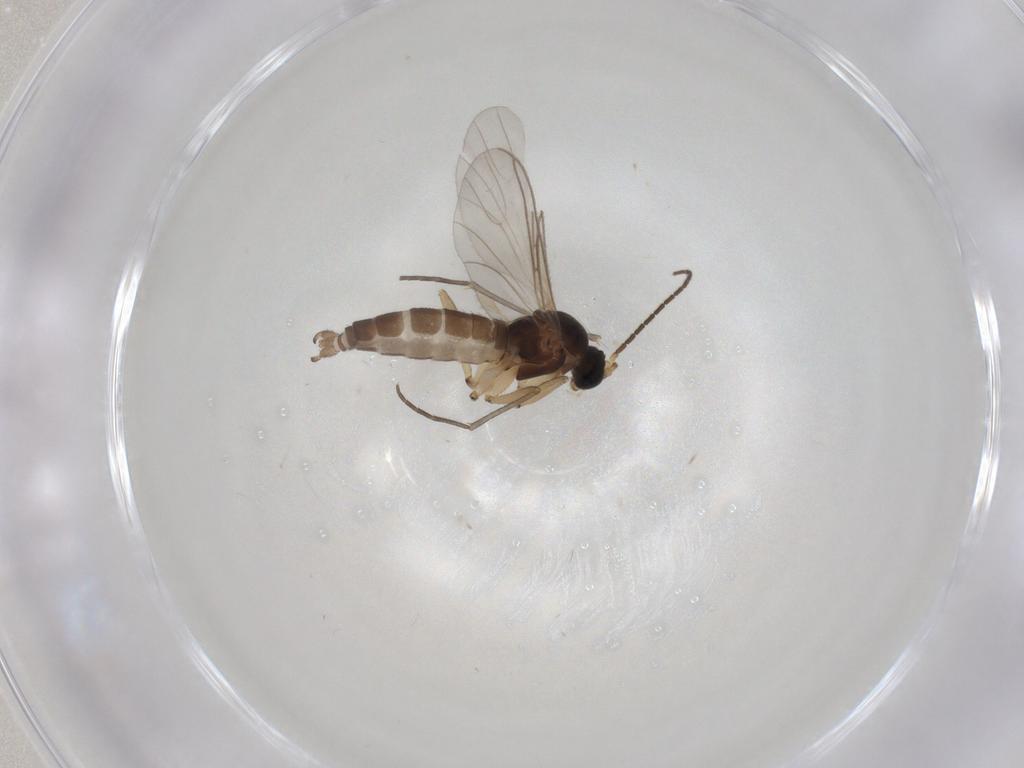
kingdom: Animalia
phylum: Arthropoda
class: Insecta
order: Diptera
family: Sciaridae
